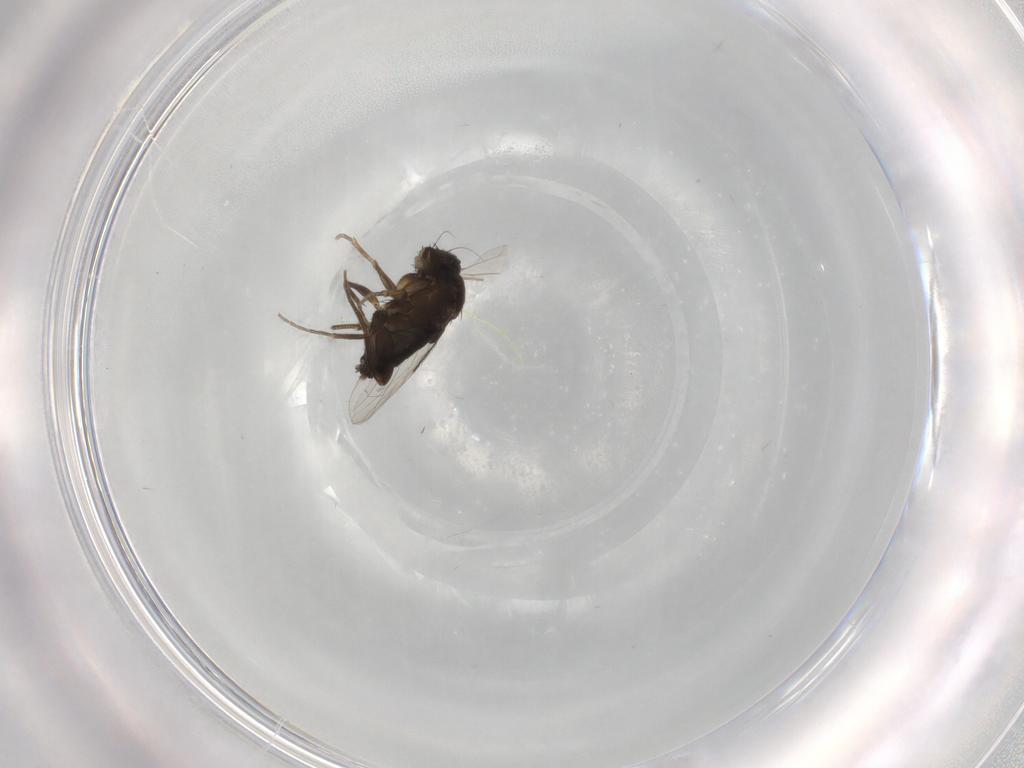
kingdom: Animalia
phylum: Arthropoda
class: Insecta
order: Diptera
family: Phoridae
